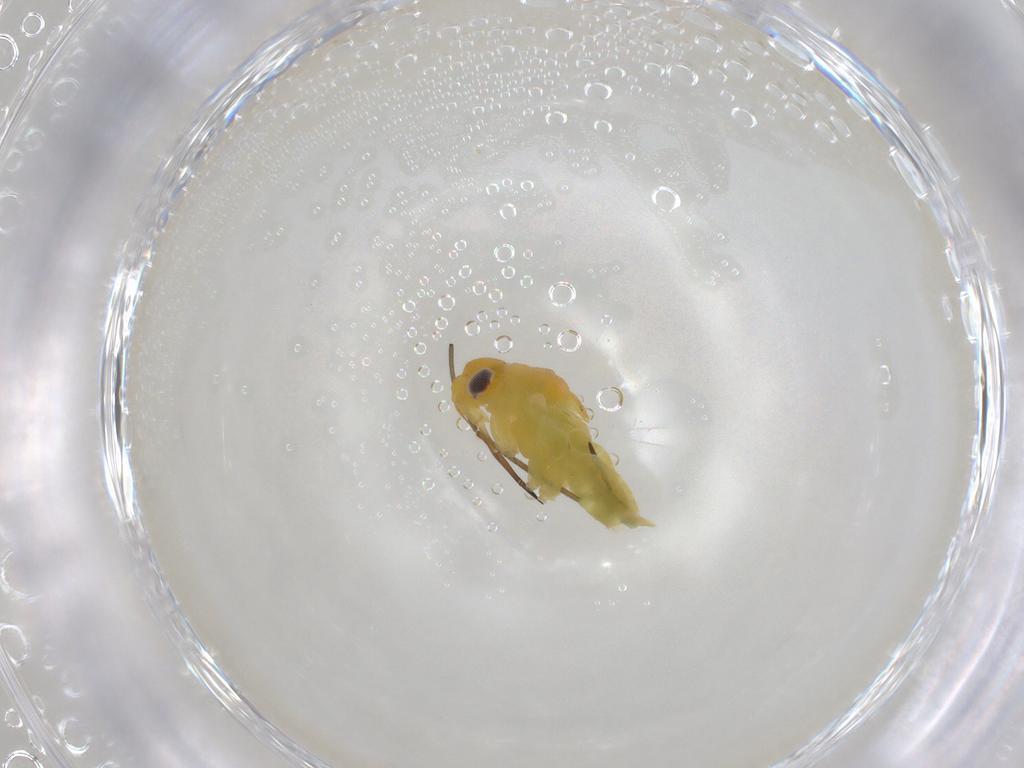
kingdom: Animalia
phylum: Arthropoda
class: Insecta
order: Hemiptera
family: Aleyrodidae
